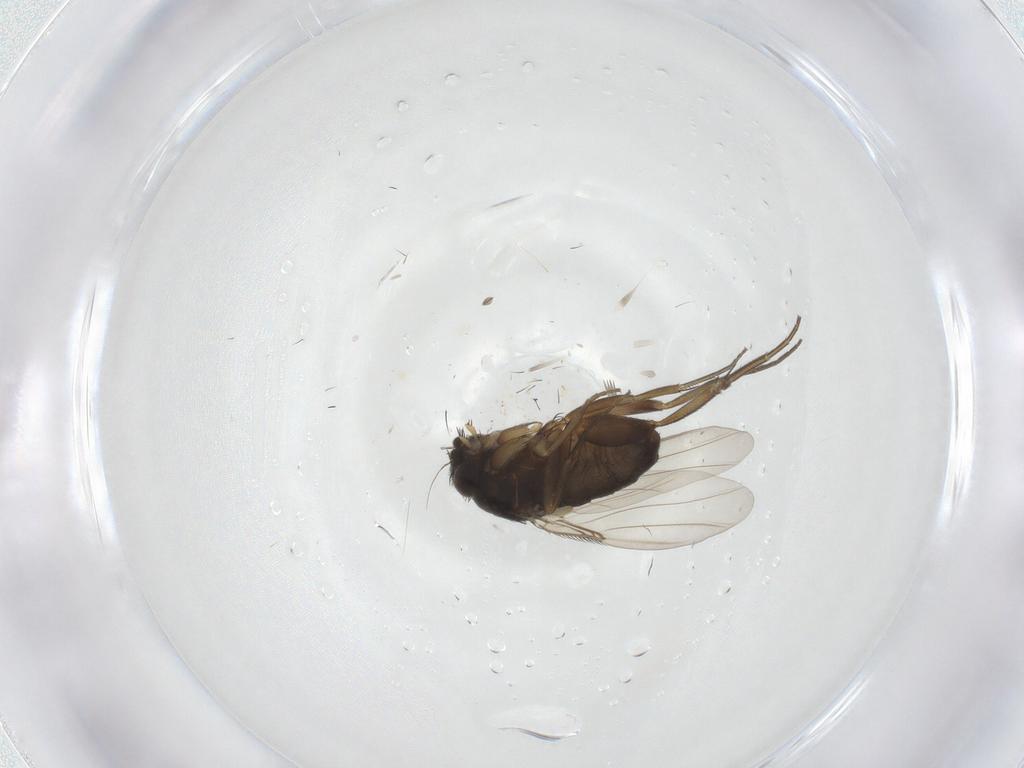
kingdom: Animalia
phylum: Arthropoda
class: Insecta
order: Diptera
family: Phoridae
